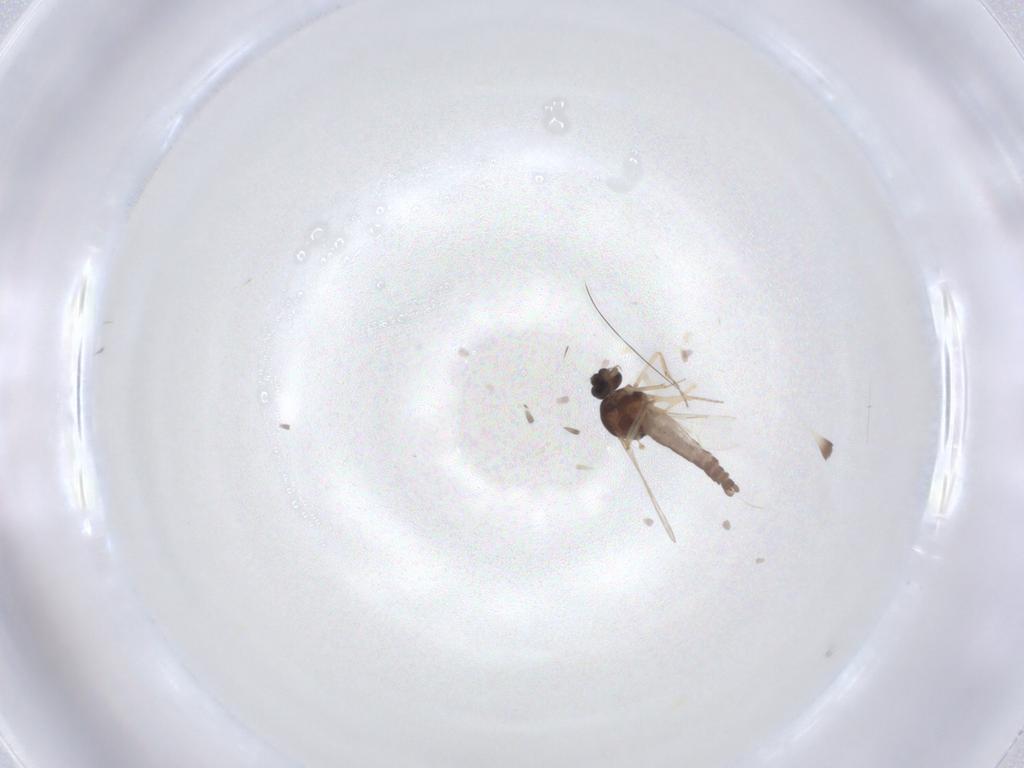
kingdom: Animalia
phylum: Arthropoda
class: Insecta
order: Diptera
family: Ceratopogonidae
